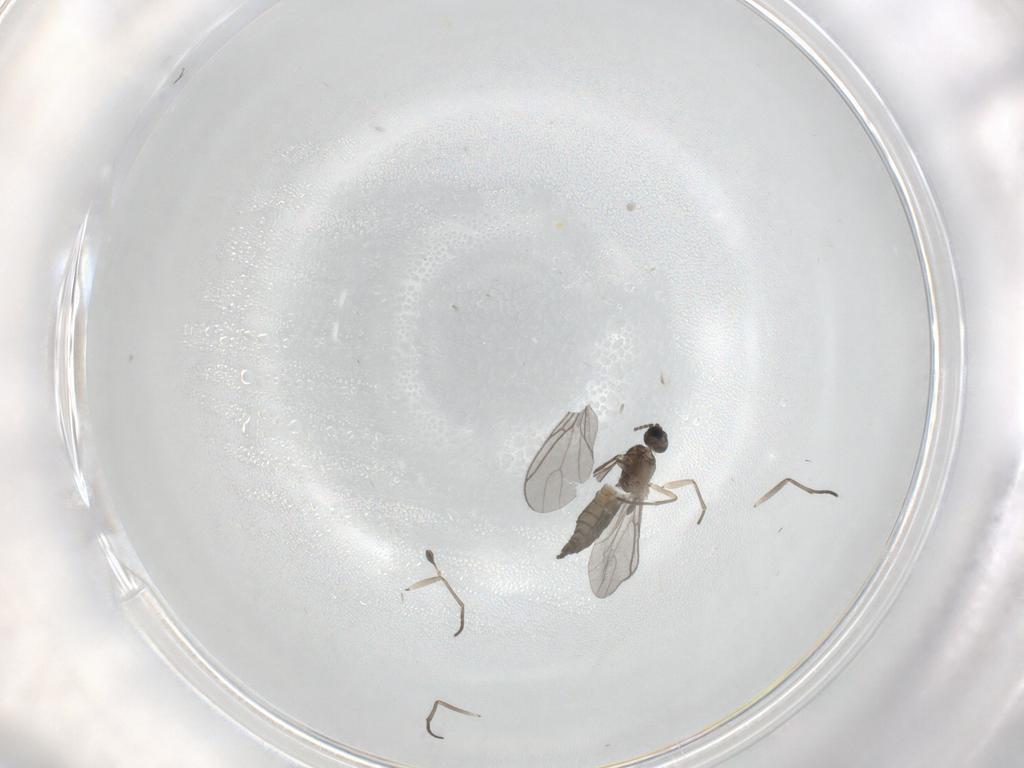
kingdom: Animalia
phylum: Arthropoda
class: Insecta
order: Diptera
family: Sciaridae
